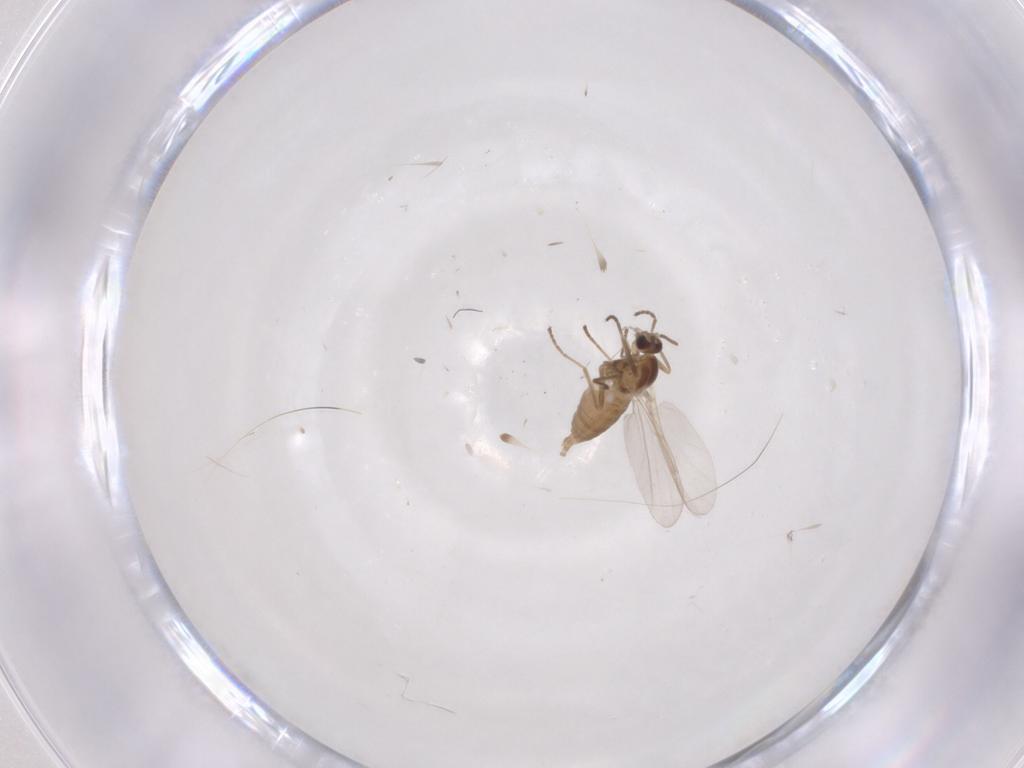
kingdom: Animalia
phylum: Arthropoda
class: Insecta
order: Diptera
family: Cecidomyiidae
